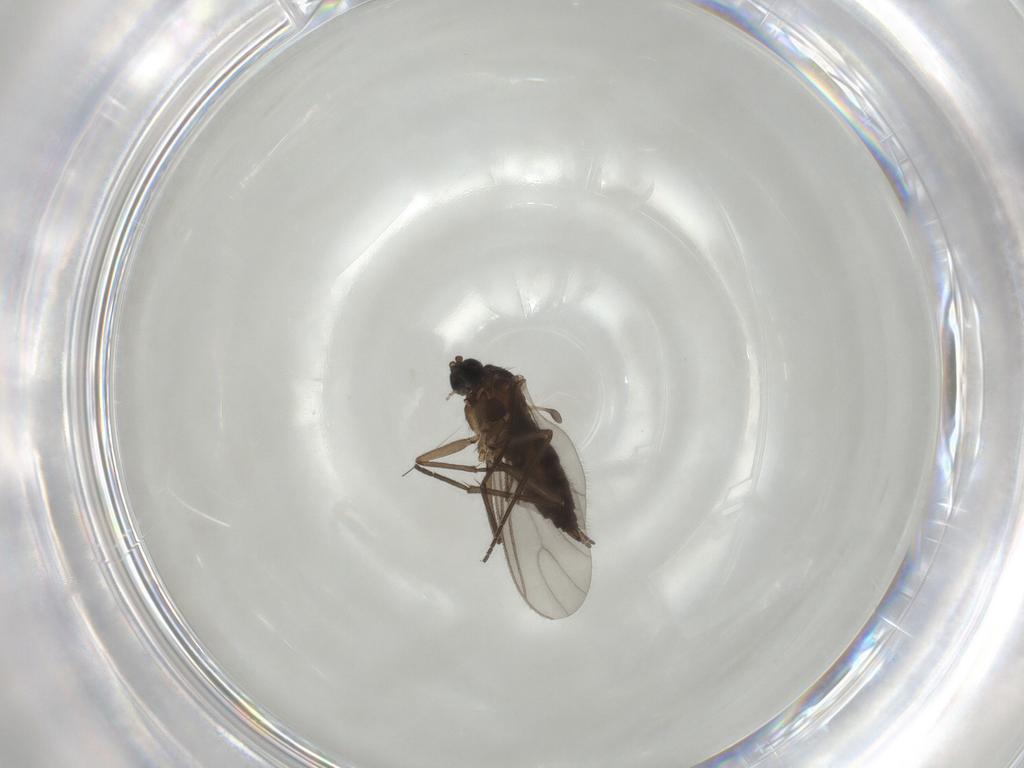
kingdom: Animalia
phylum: Arthropoda
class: Insecta
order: Diptera
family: Sciaridae
